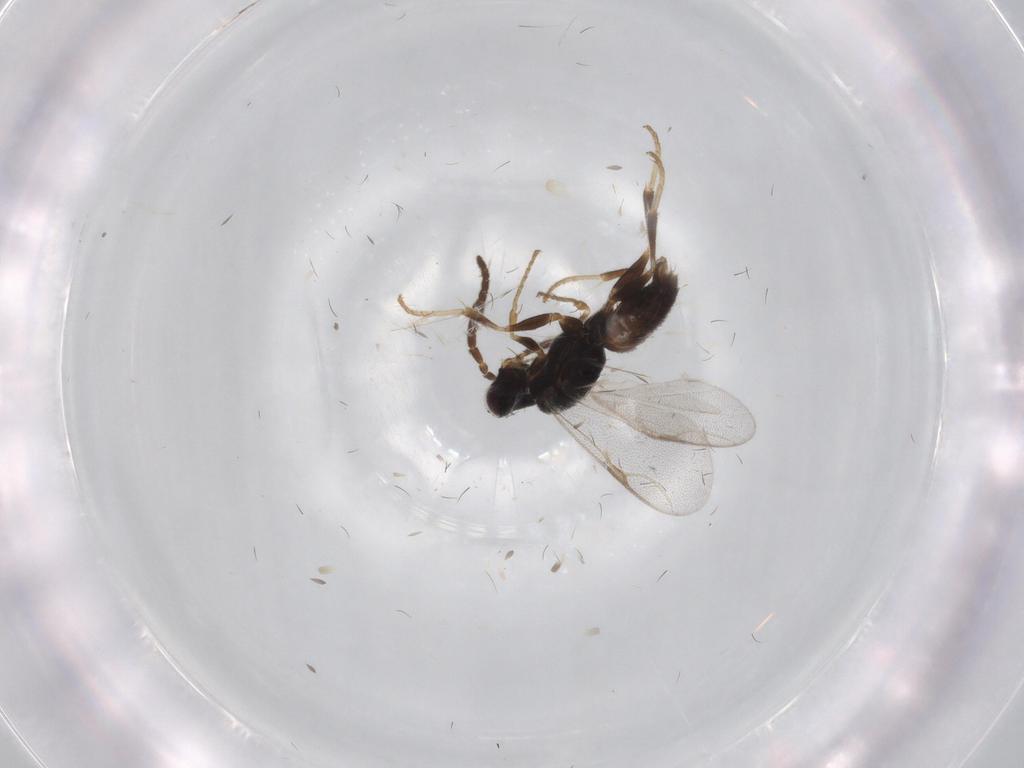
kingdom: Animalia
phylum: Arthropoda
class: Insecta
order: Hymenoptera
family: Dryinidae
